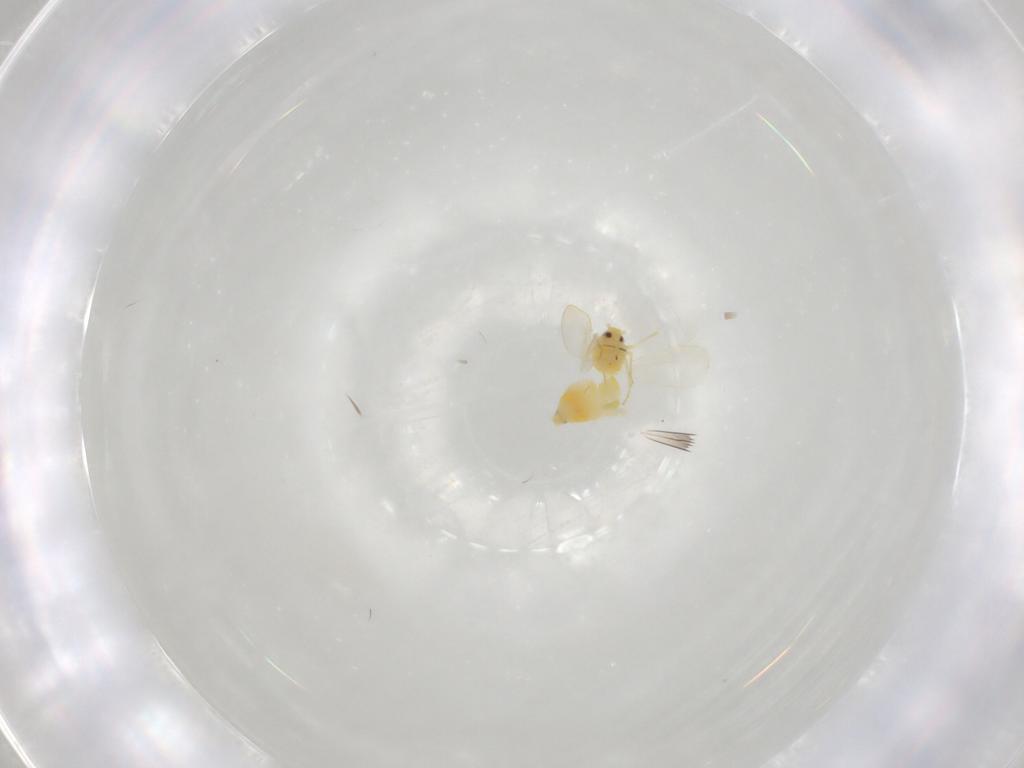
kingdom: Animalia
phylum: Arthropoda
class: Insecta
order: Hemiptera
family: Aleyrodidae
